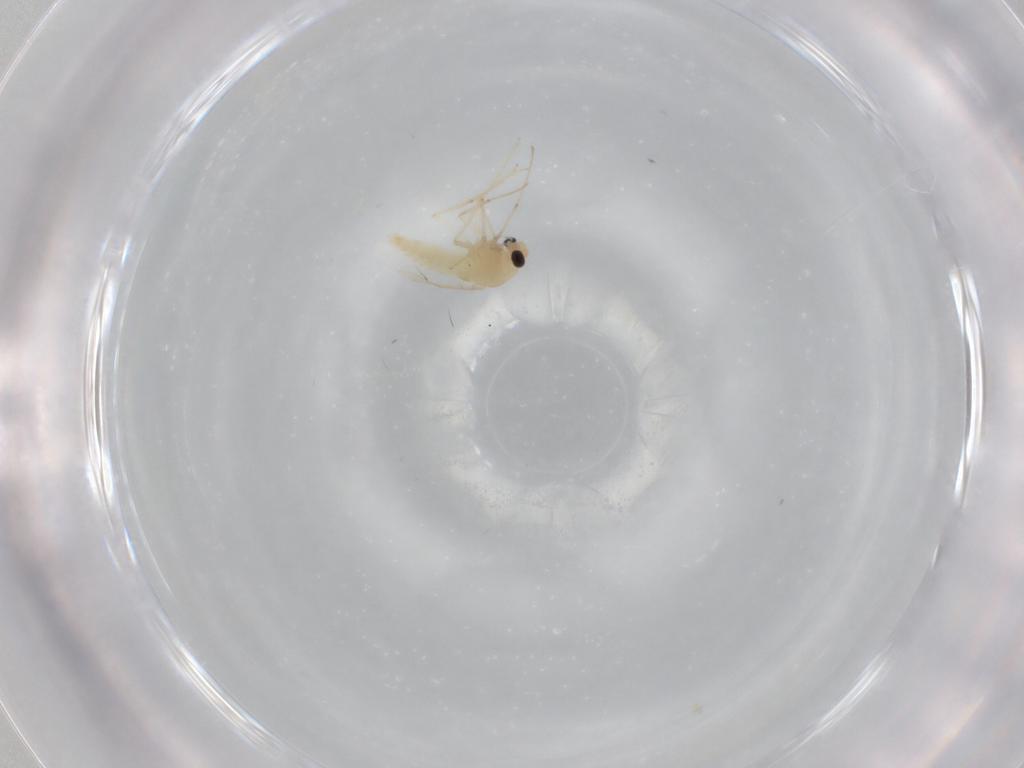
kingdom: Animalia
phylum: Arthropoda
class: Insecta
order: Diptera
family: Chironomidae
